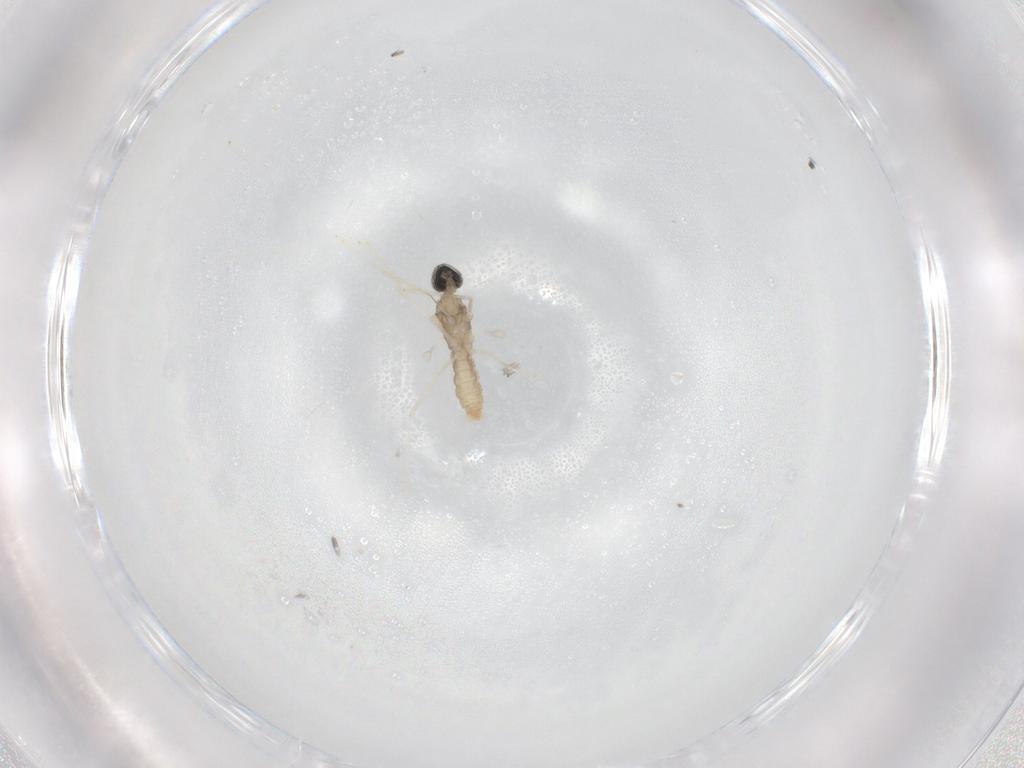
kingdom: Animalia
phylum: Arthropoda
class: Insecta
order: Diptera
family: Cecidomyiidae
